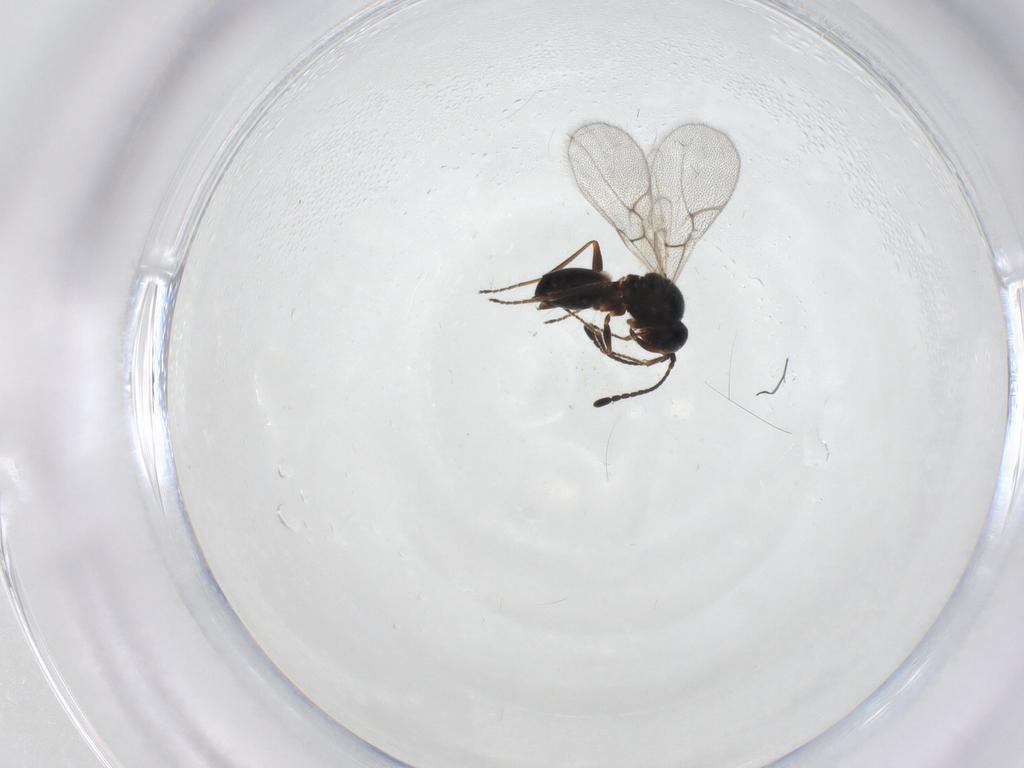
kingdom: Animalia
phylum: Arthropoda
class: Insecta
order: Hymenoptera
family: Figitidae
